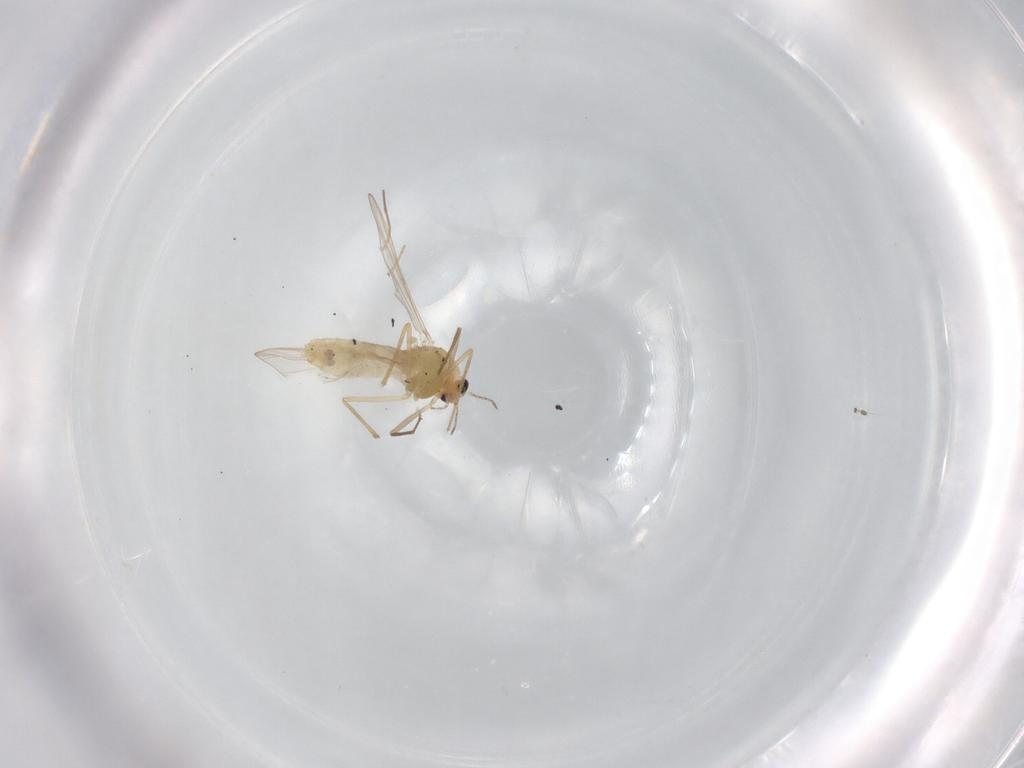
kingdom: Animalia
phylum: Arthropoda
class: Insecta
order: Diptera
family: Chironomidae
